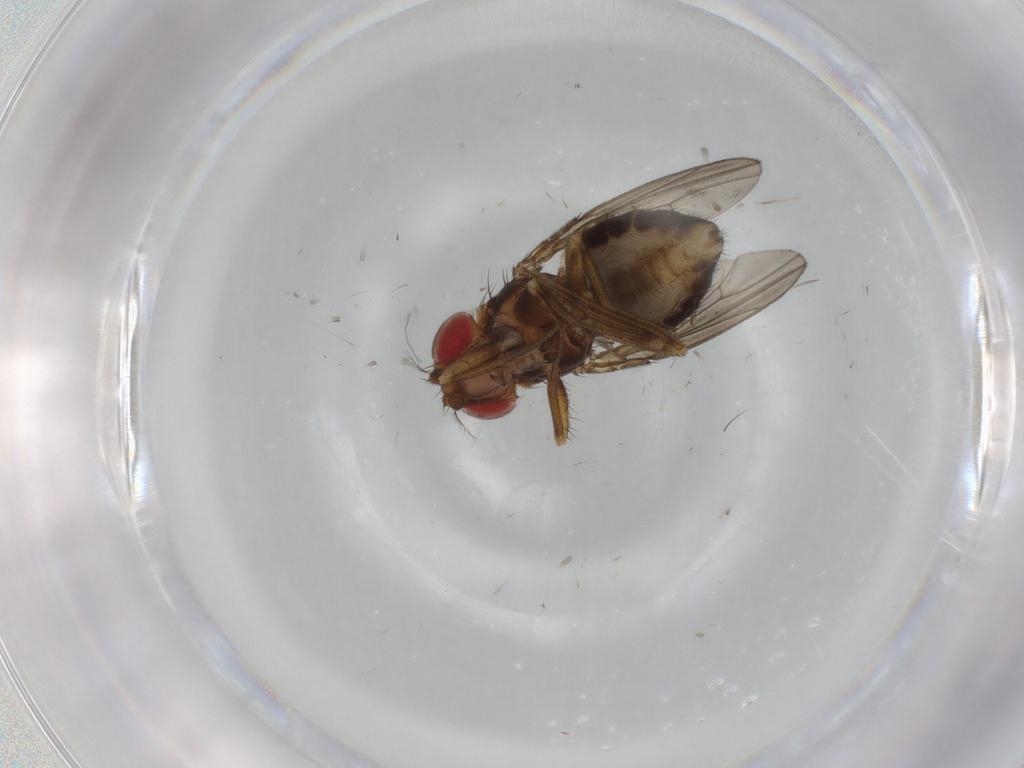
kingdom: Animalia
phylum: Arthropoda
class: Insecta
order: Diptera
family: Drosophilidae
